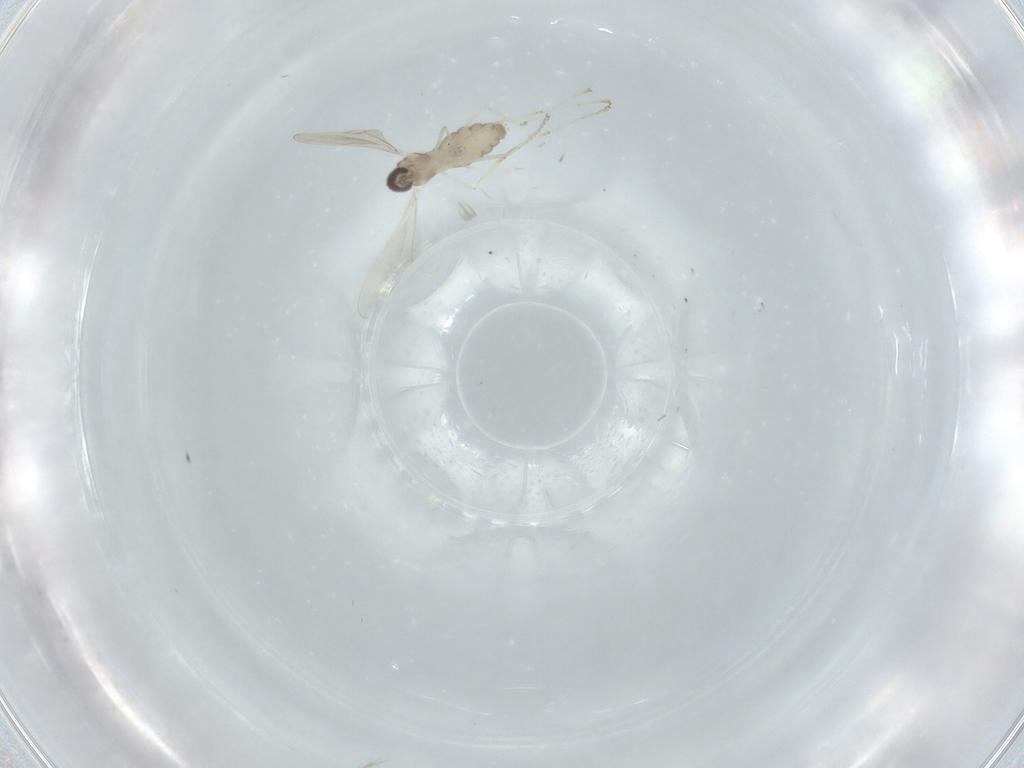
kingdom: Animalia
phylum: Arthropoda
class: Insecta
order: Diptera
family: Cecidomyiidae
